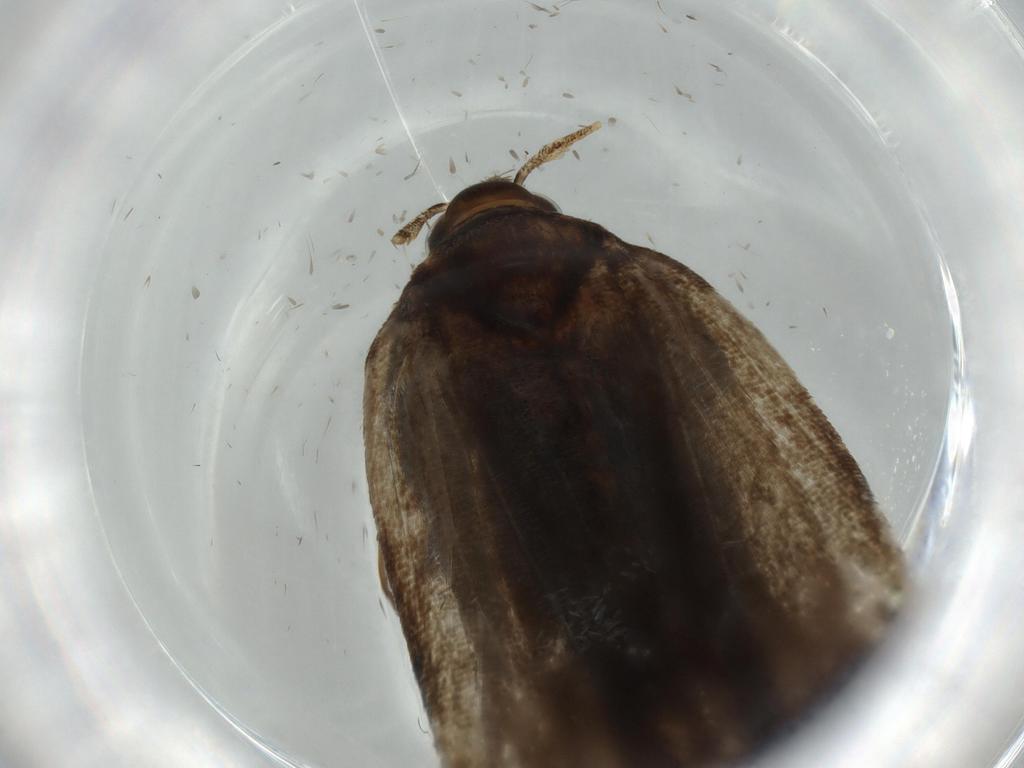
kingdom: Animalia
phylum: Arthropoda
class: Insecta
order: Lepidoptera
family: Autostichidae
